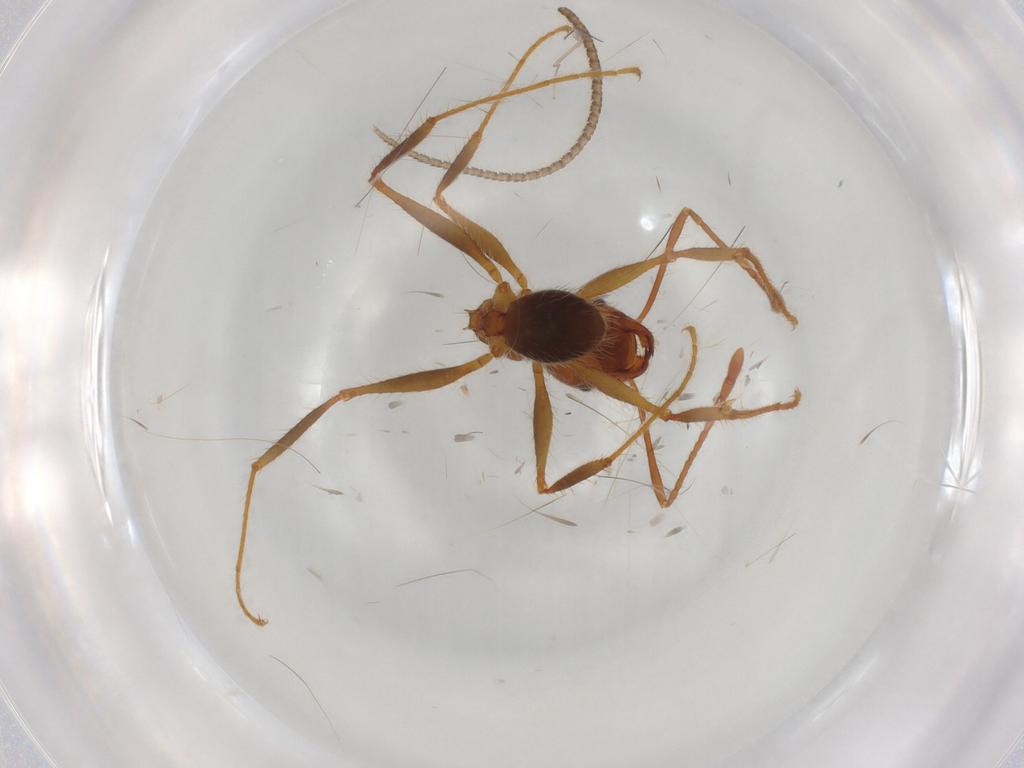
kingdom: Animalia
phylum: Arthropoda
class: Insecta
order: Hymenoptera
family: Formicidae
